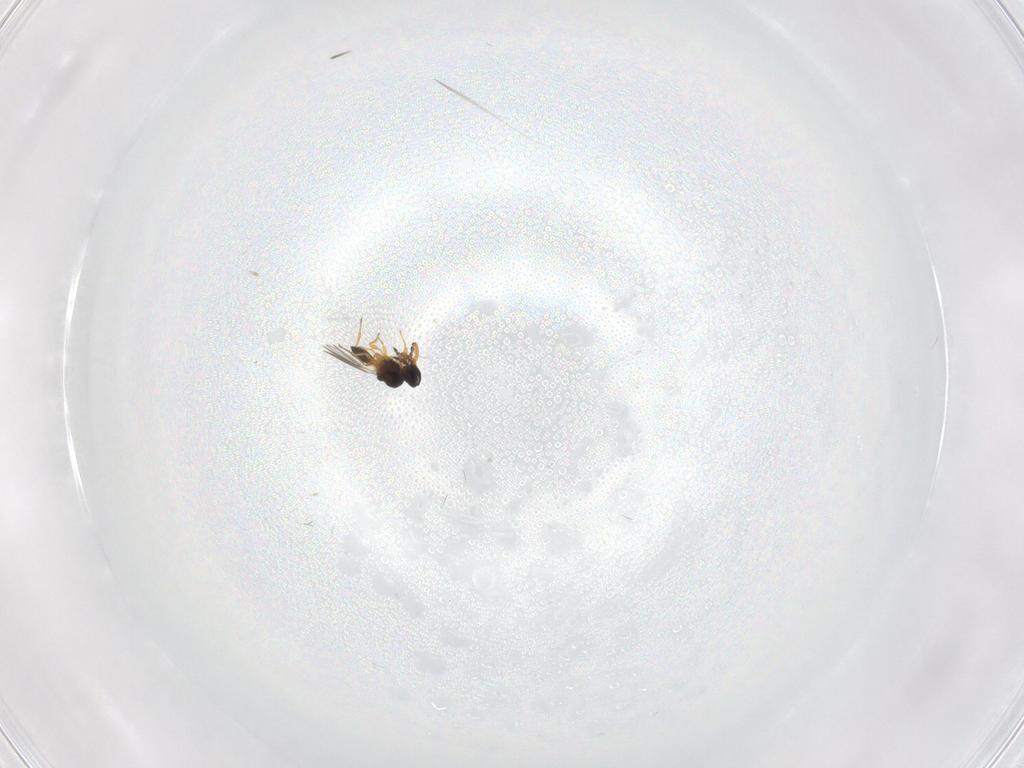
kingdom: Animalia
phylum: Arthropoda
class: Insecta
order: Hymenoptera
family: Platygastridae
